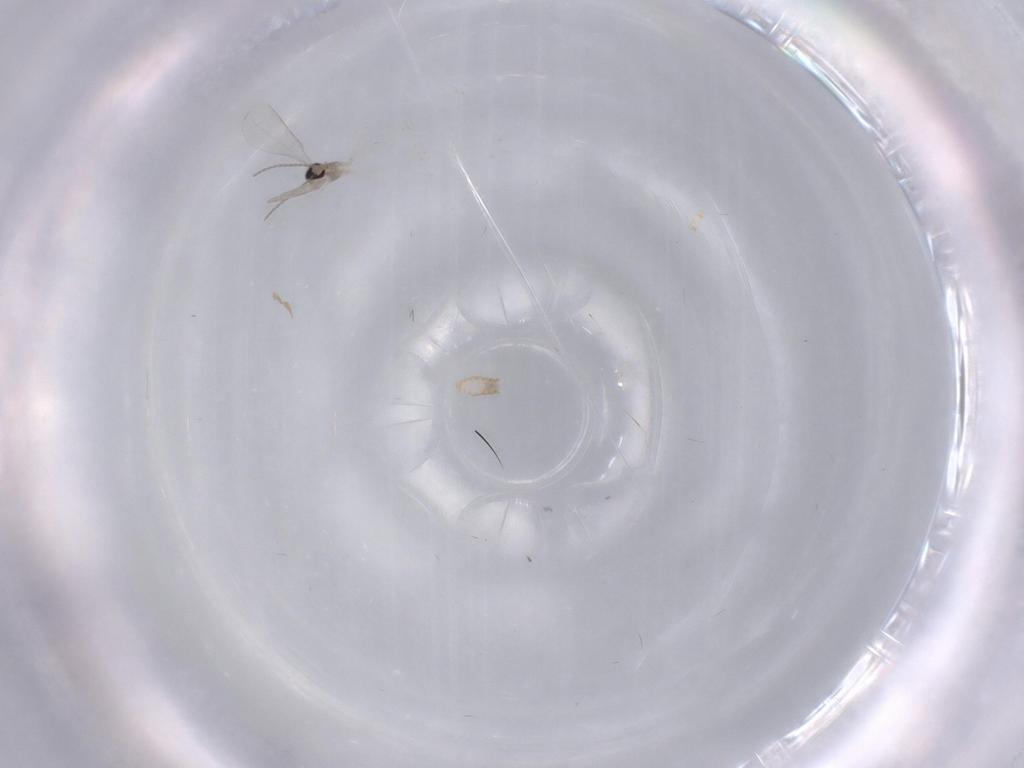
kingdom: Animalia
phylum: Arthropoda
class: Insecta
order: Diptera
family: Cecidomyiidae
